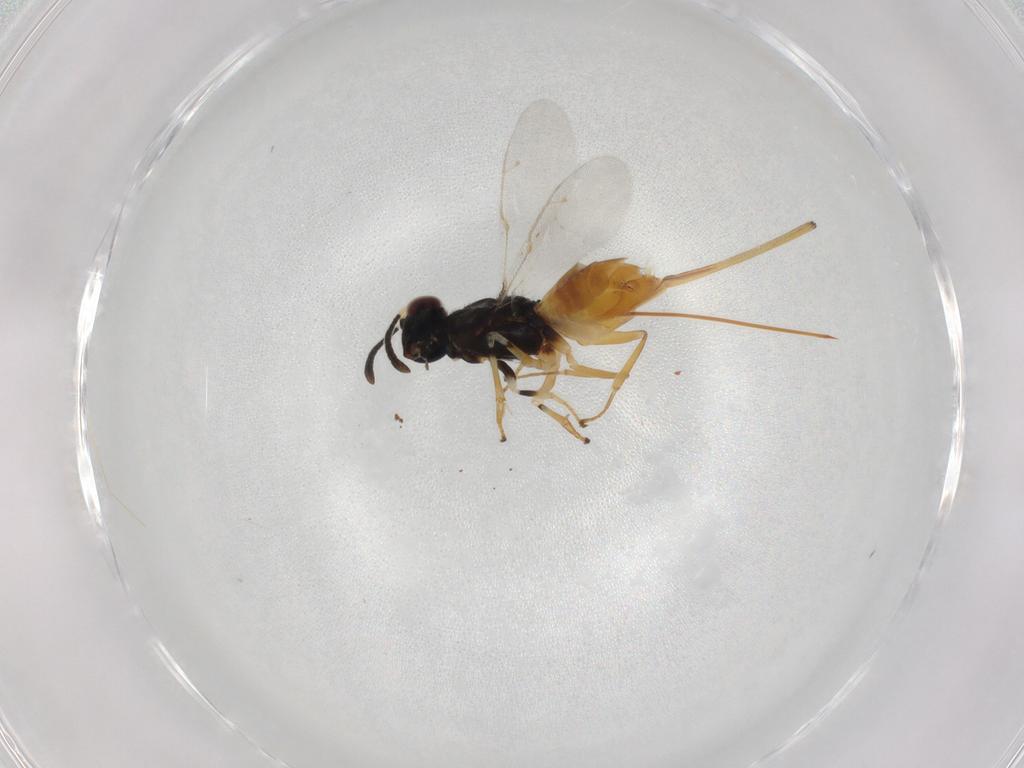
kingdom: Animalia
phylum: Arthropoda
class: Insecta
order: Hymenoptera
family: Eupelmidae
